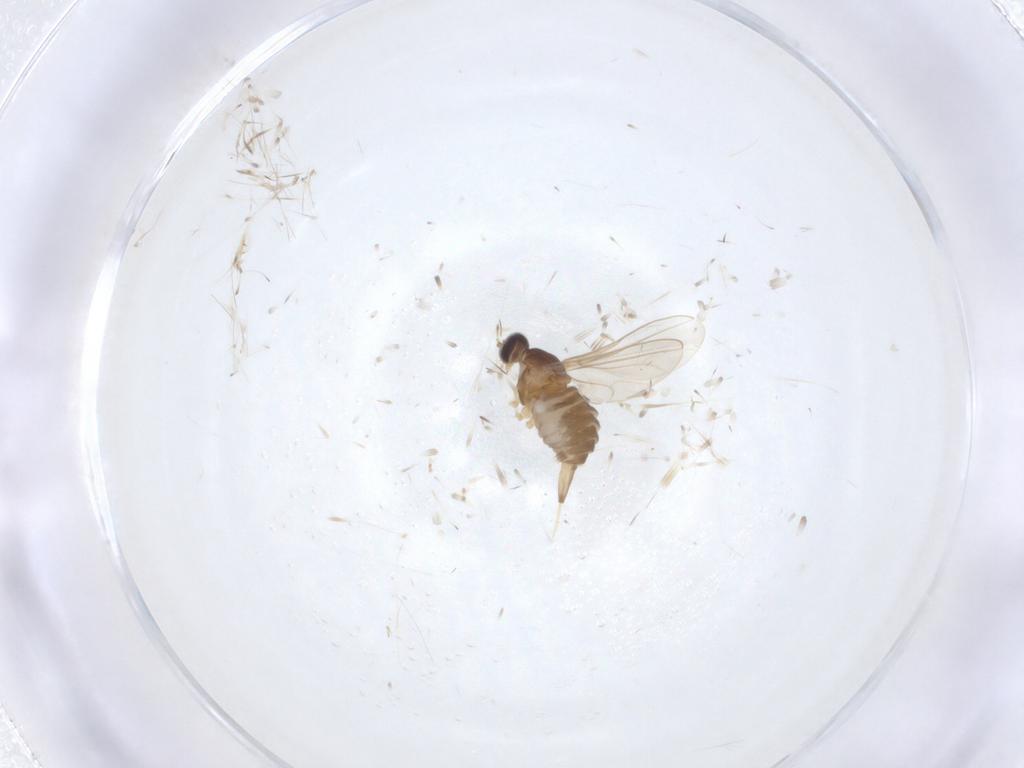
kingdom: Animalia
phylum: Arthropoda
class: Insecta
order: Diptera
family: Cecidomyiidae
